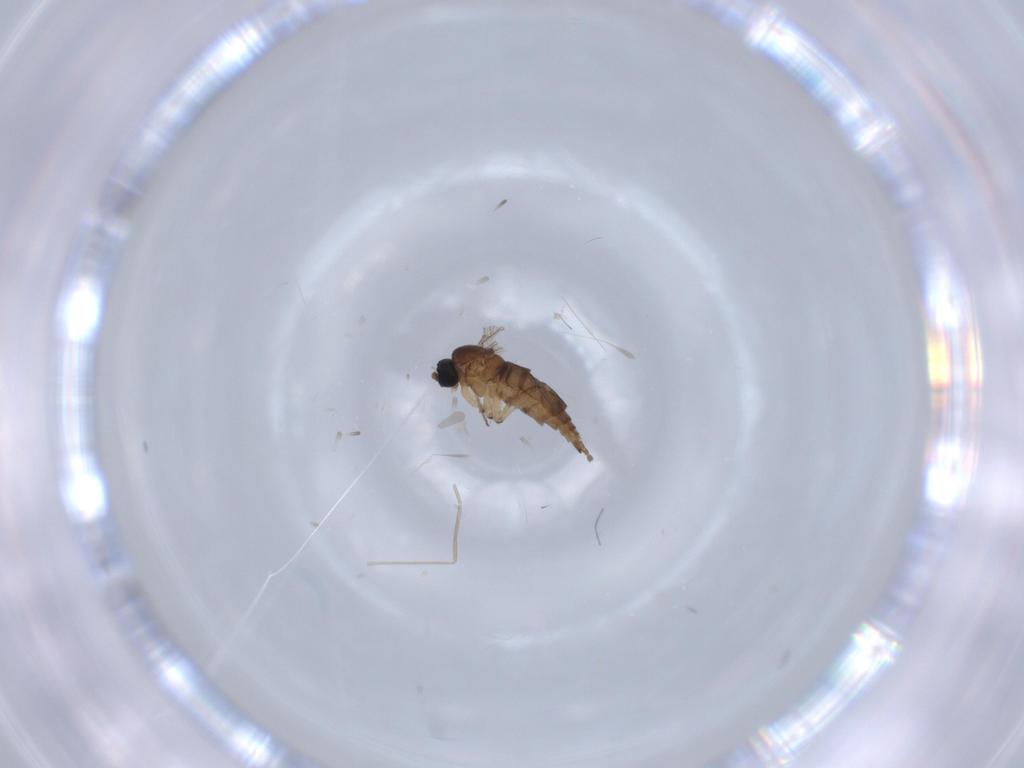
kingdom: Animalia
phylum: Arthropoda
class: Insecta
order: Diptera
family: Sciaridae
